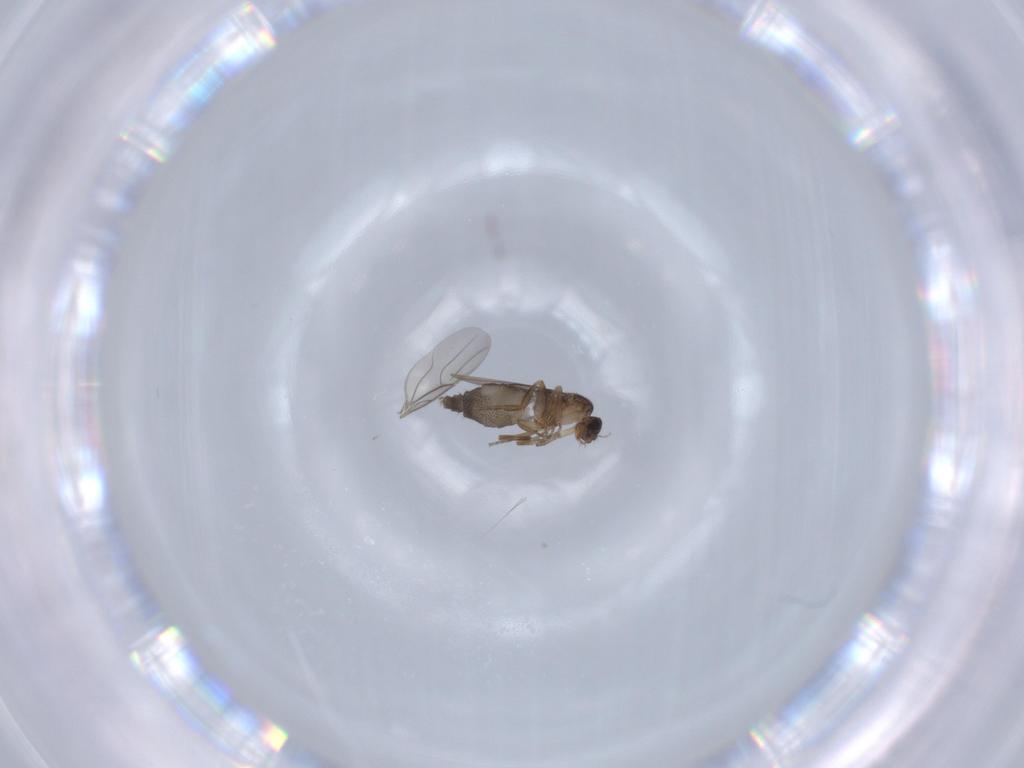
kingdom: Animalia
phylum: Arthropoda
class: Insecta
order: Diptera
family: Phoridae
